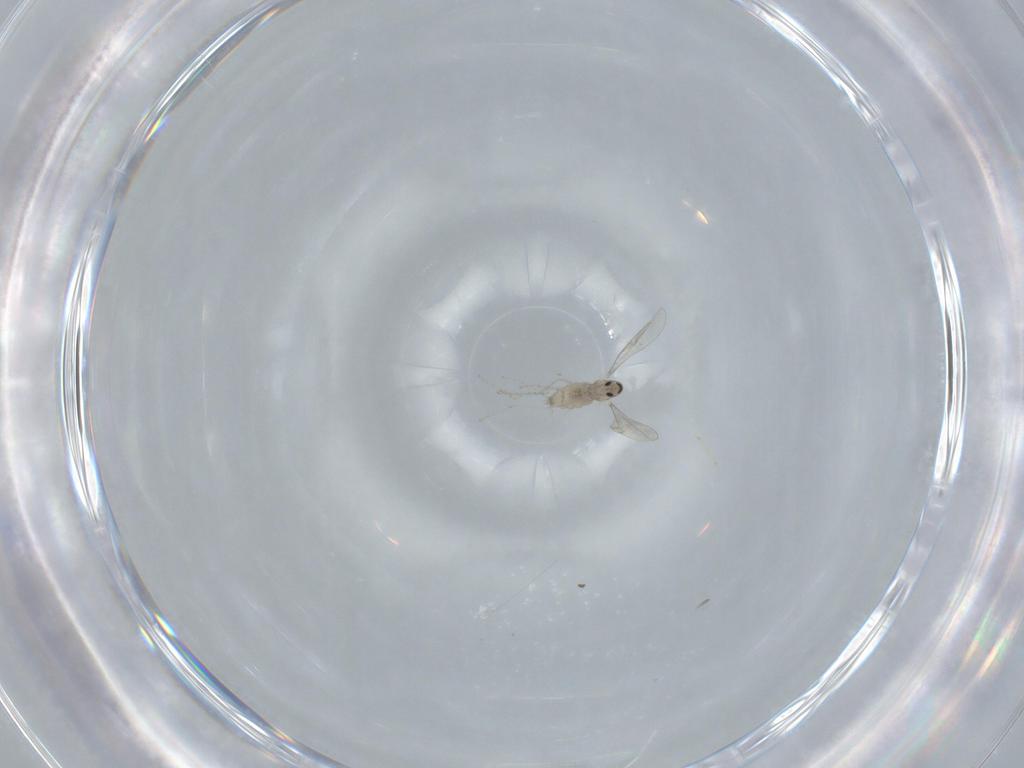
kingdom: Animalia
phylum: Arthropoda
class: Insecta
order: Diptera
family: Cecidomyiidae
